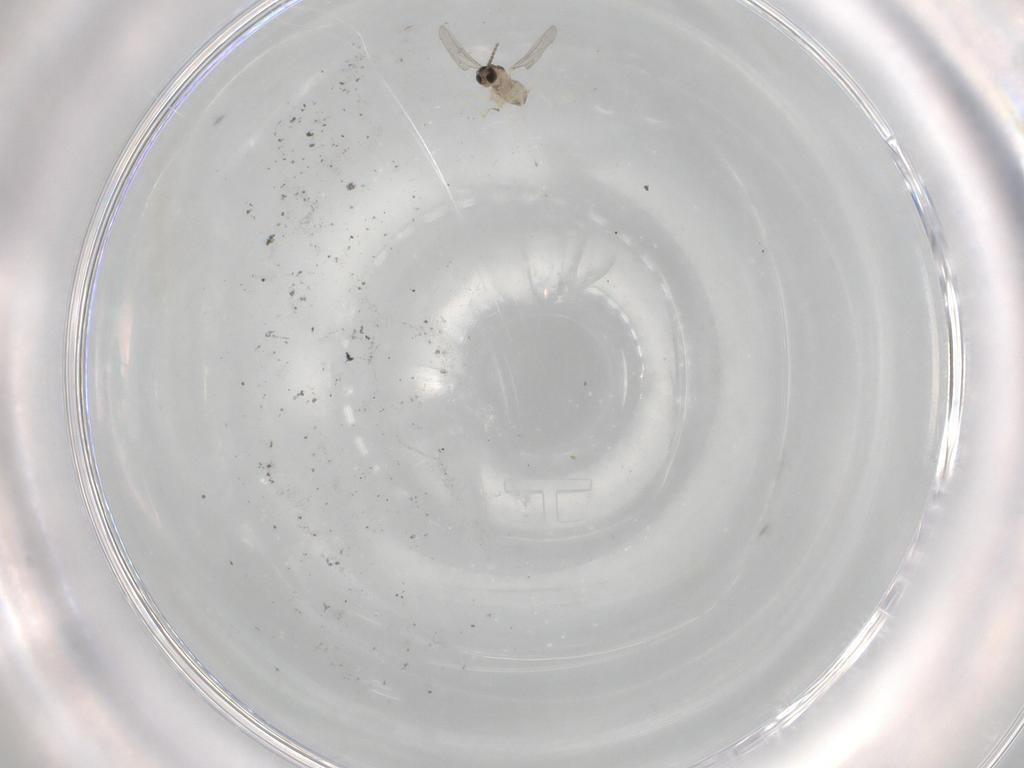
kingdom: Animalia
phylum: Arthropoda
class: Insecta
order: Diptera
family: Cecidomyiidae
